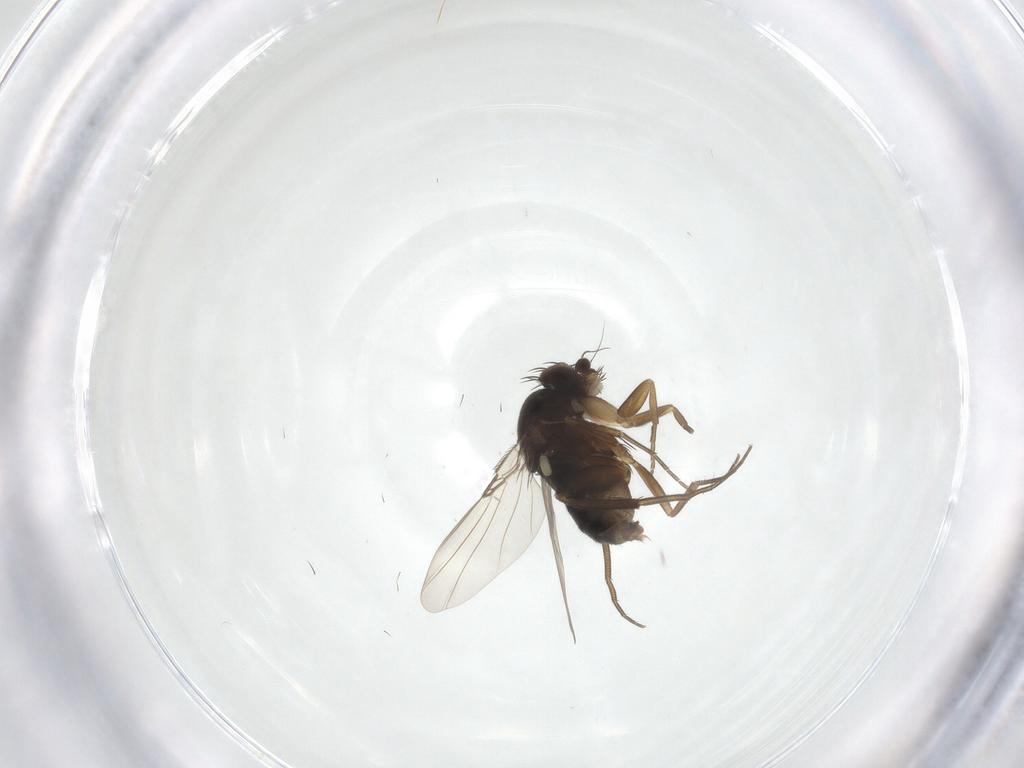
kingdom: Animalia
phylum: Arthropoda
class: Insecta
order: Diptera
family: Phoridae
